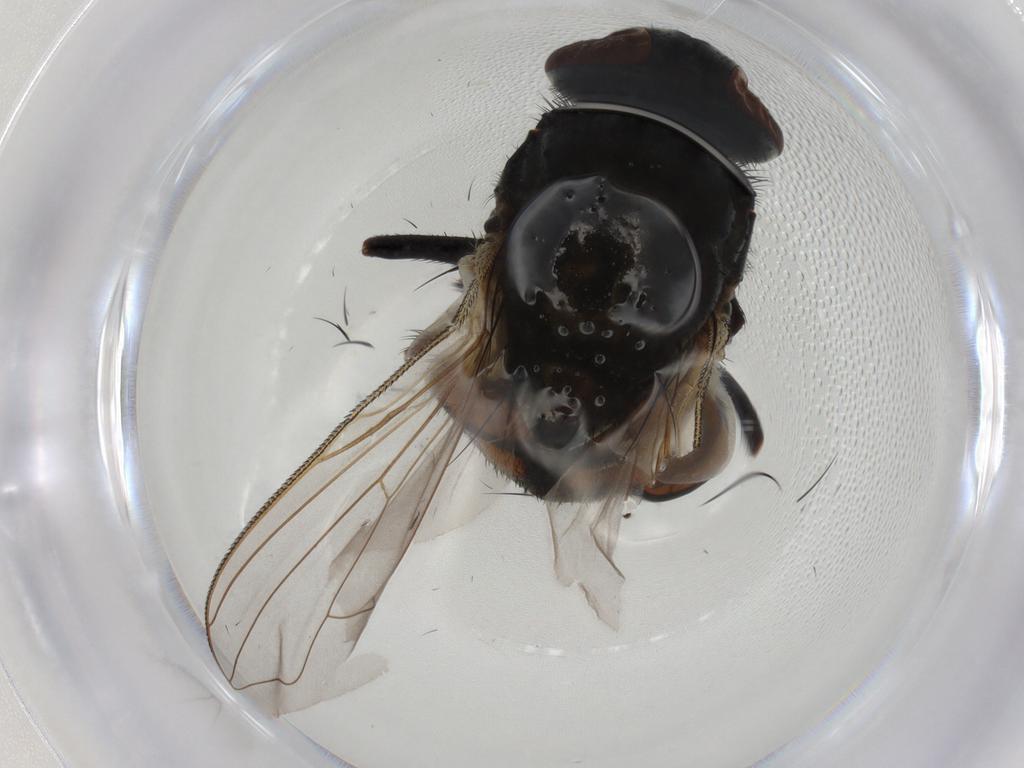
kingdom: Animalia
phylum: Arthropoda
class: Insecta
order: Diptera
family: Muscidae
